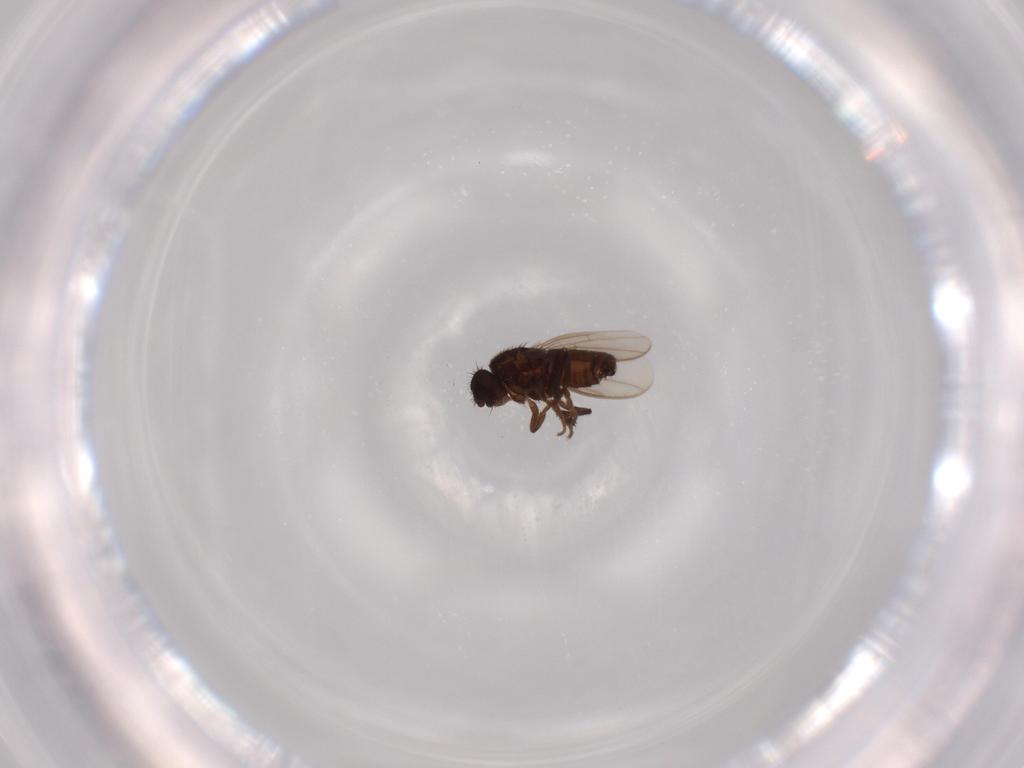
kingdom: Animalia
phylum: Arthropoda
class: Insecta
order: Diptera
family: Sphaeroceridae
